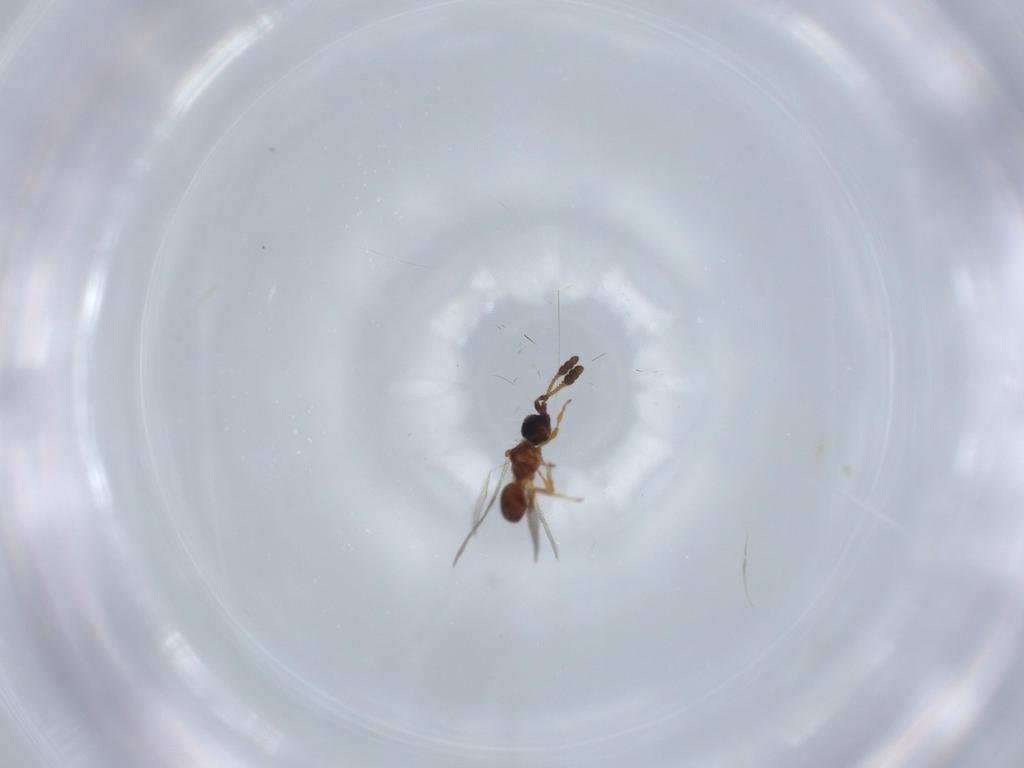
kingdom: Animalia
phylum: Arthropoda
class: Insecta
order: Hymenoptera
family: Diapriidae
